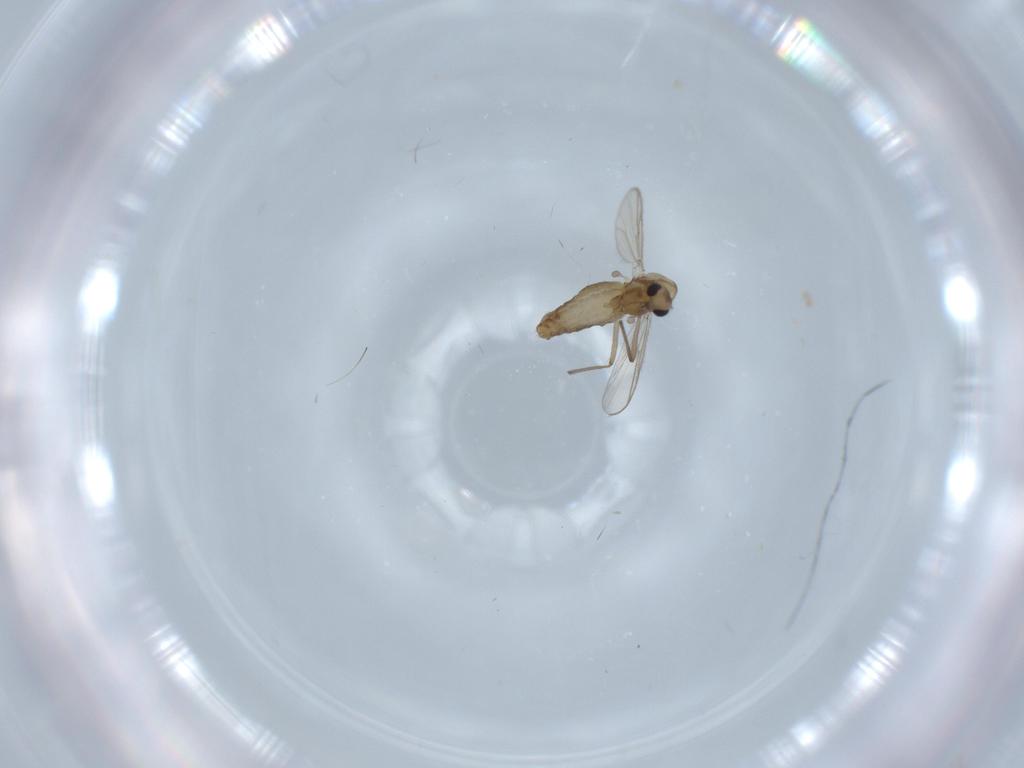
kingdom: Animalia
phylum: Arthropoda
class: Insecta
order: Diptera
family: Chironomidae
